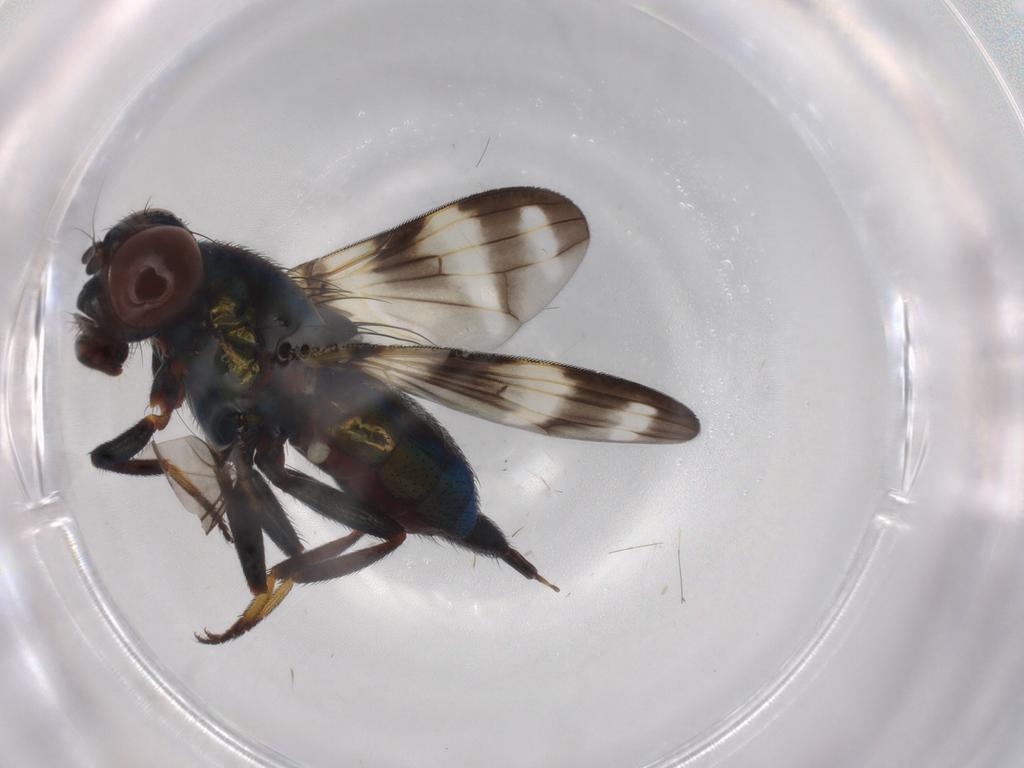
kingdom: Animalia
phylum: Arthropoda
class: Insecta
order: Diptera
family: Ulidiidae
